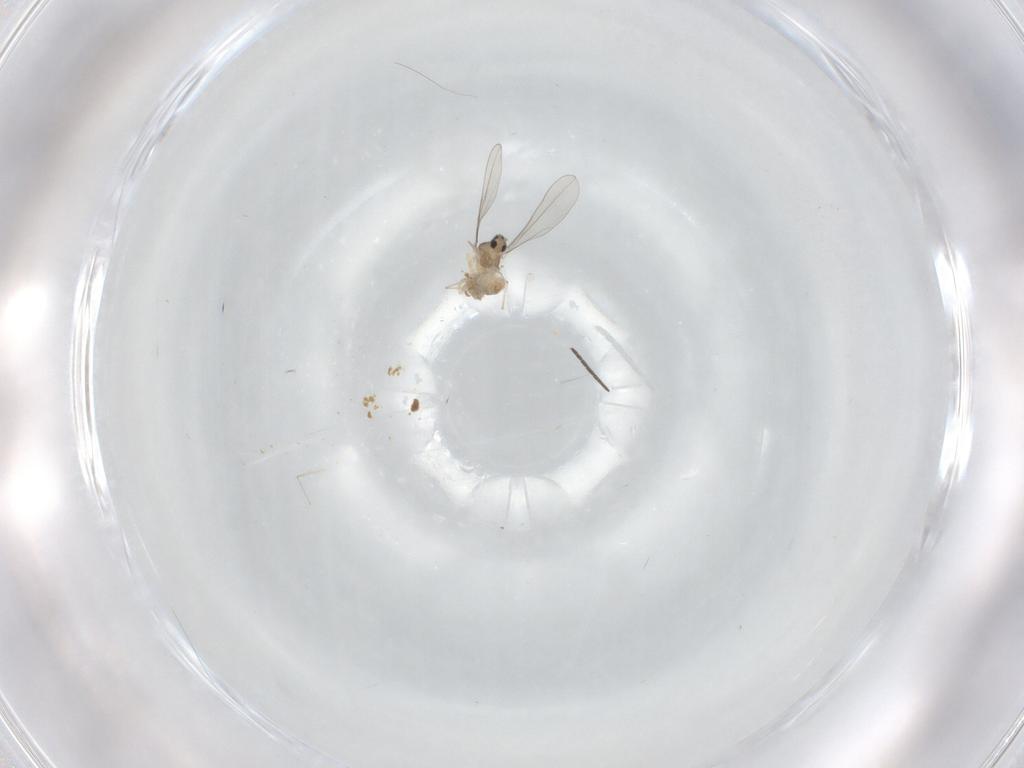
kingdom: Animalia
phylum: Arthropoda
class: Insecta
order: Diptera
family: Cecidomyiidae
